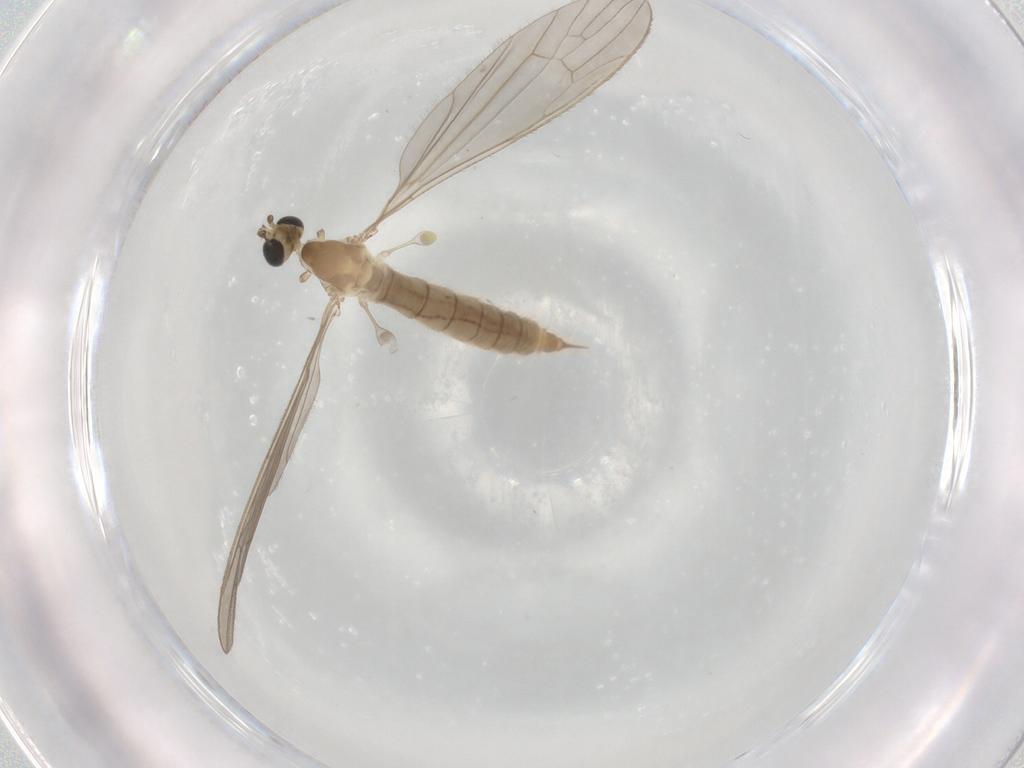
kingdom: Animalia
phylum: Arthropoda
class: Insecta
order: Diptera
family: Limoniidae
